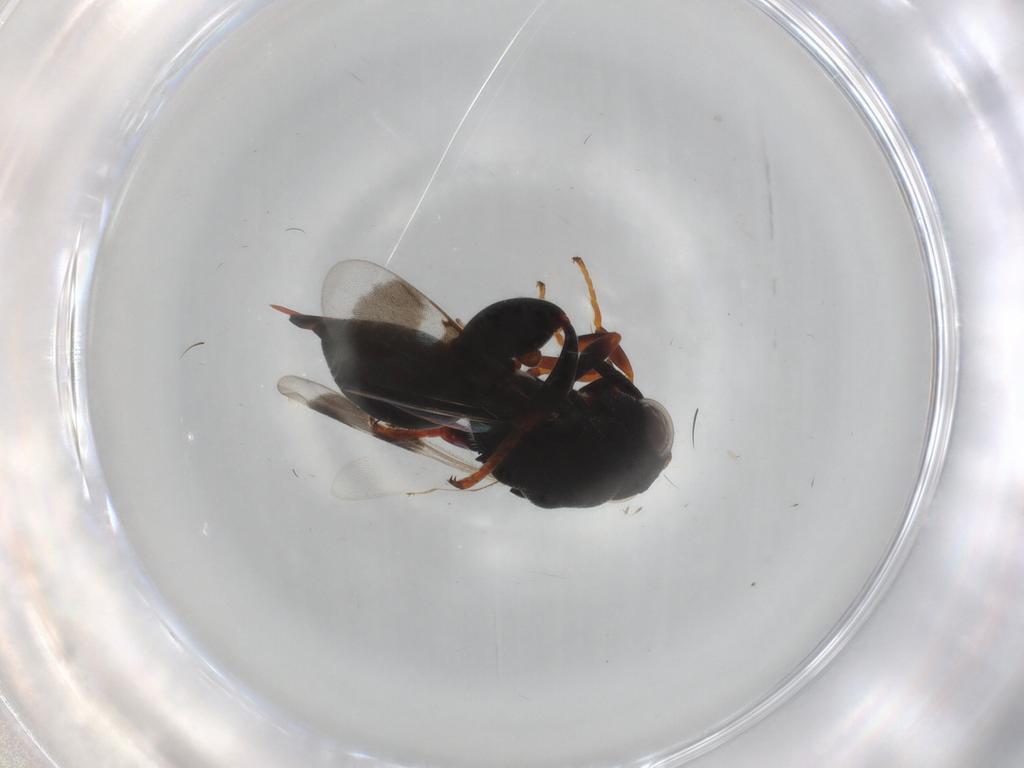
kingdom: Animalia
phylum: Arthropoda
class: Insecta
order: Hymenoptera
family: Chalcididae
